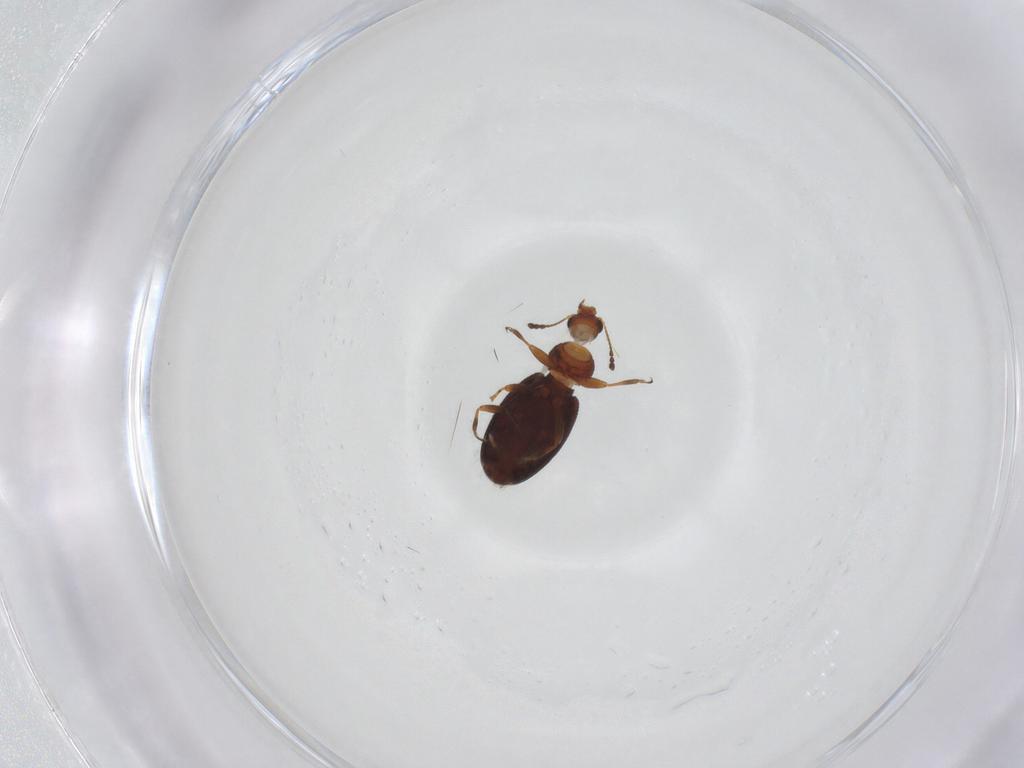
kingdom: Animalia
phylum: Arthropoda
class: Insecta
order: Coleoptera
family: Latridiidae
